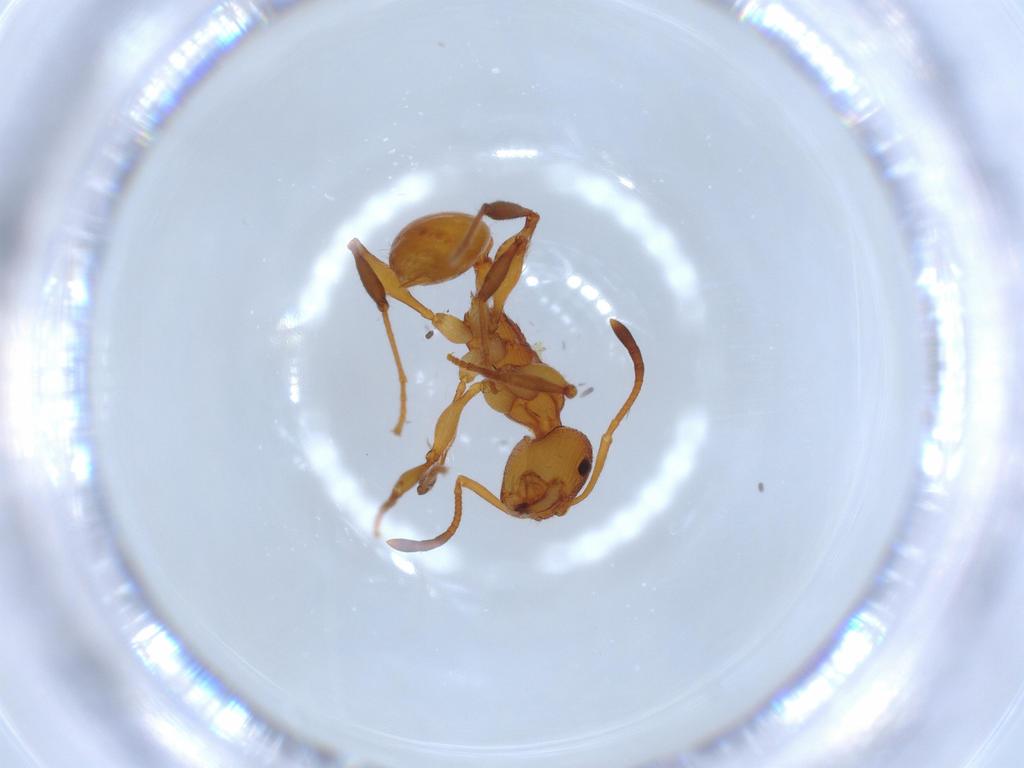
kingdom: Animalia
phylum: Arthropoda
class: Insecta
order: Hymenoptera
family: Formicidae
